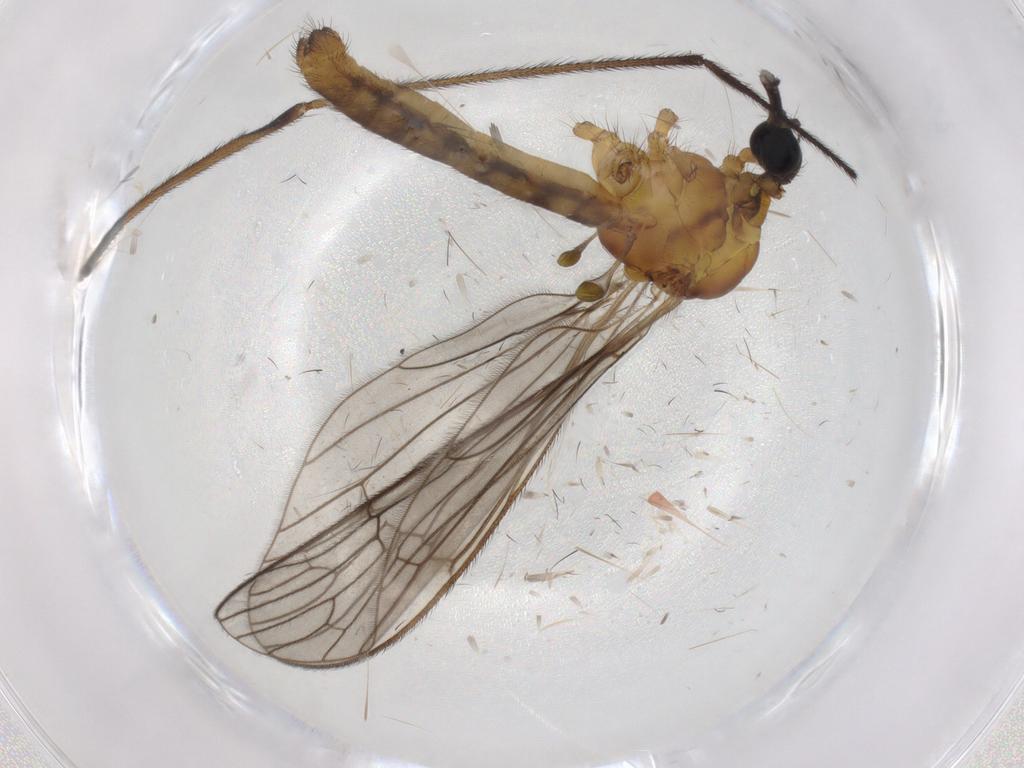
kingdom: Animalia
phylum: Arthropoda
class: Insecta
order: Diptera
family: Limoniidae
